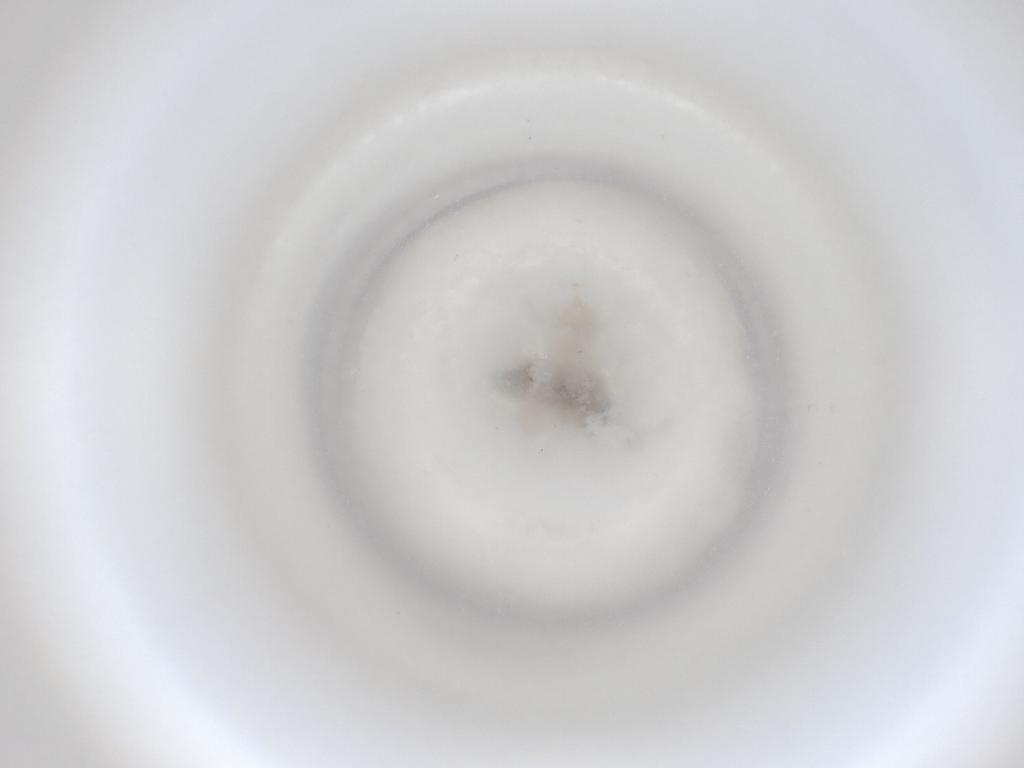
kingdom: Animalia
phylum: Arthropoda
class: Insecta
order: Diptera
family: Cecidomyiidae
